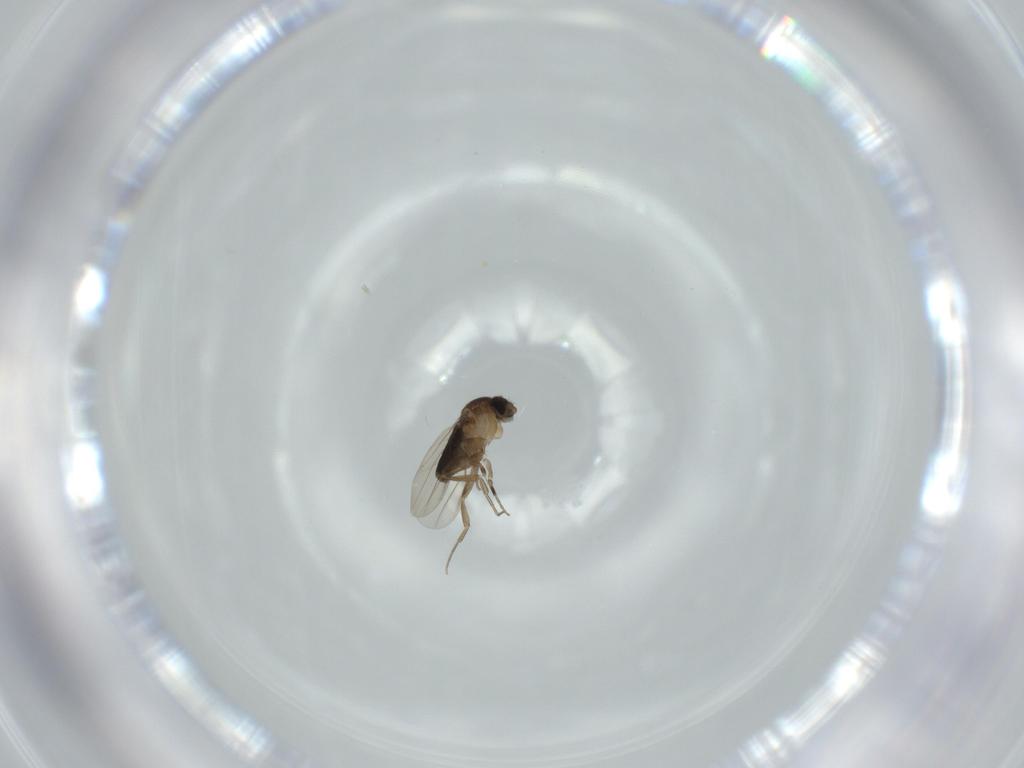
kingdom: Animalia
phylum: Arthropoda
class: Insecta
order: Diptera
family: Phoridae
